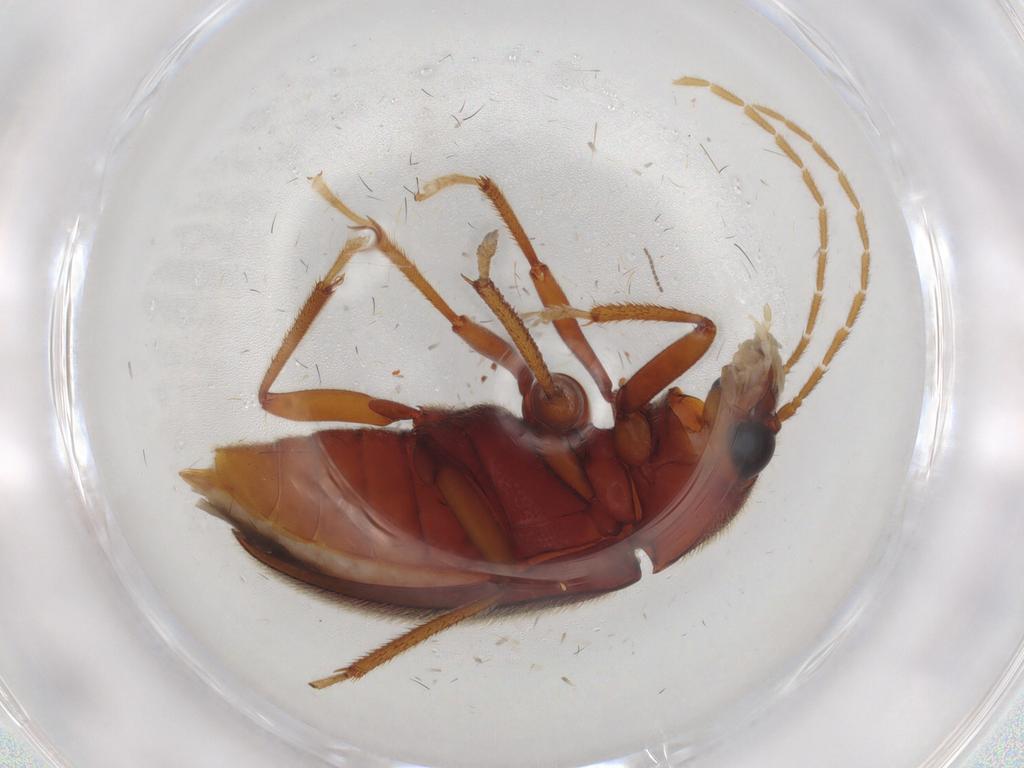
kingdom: Animalia
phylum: Arthropoda
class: Insecta
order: Coleoptera
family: Ptilodactylidae
